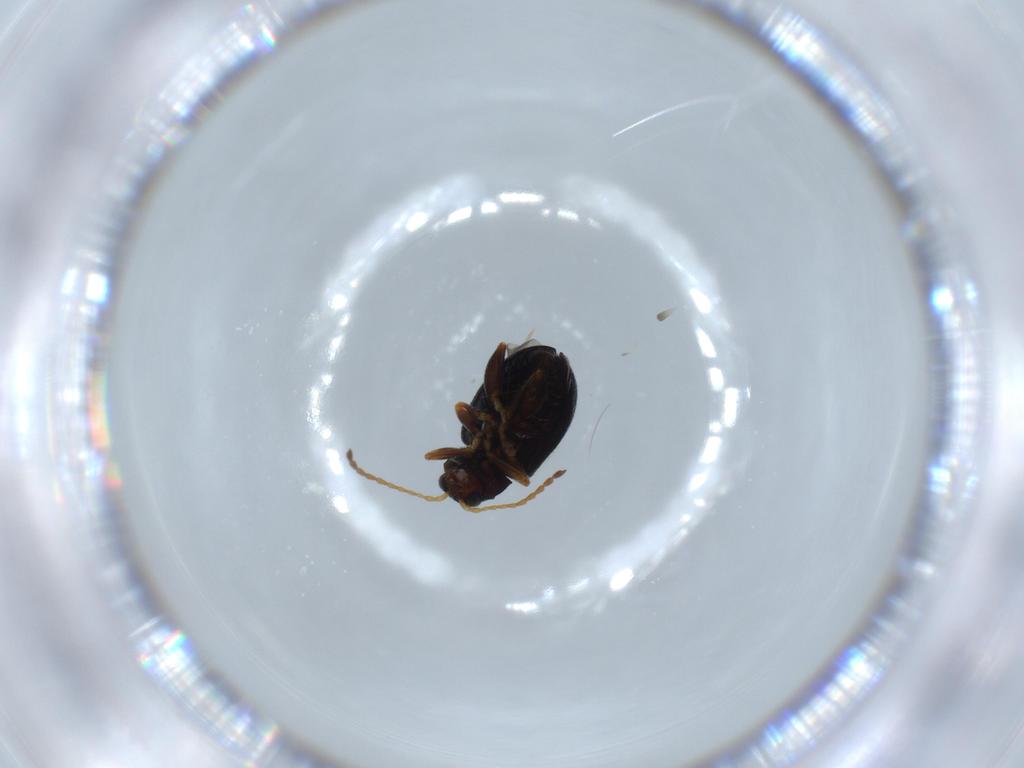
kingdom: Animalia
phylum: Arthropoda
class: Insecta
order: Coleoptera
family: Chrysomelidae
